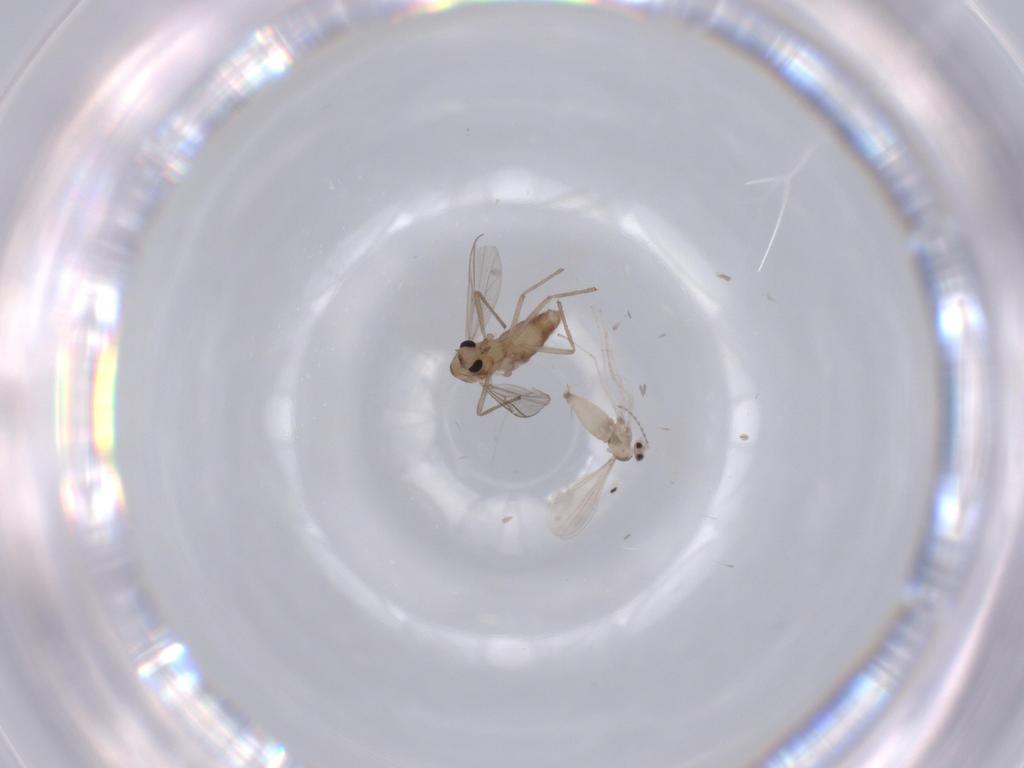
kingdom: Animalia
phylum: Arthropoda
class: Insecta
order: Diptera
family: Chironomidae
